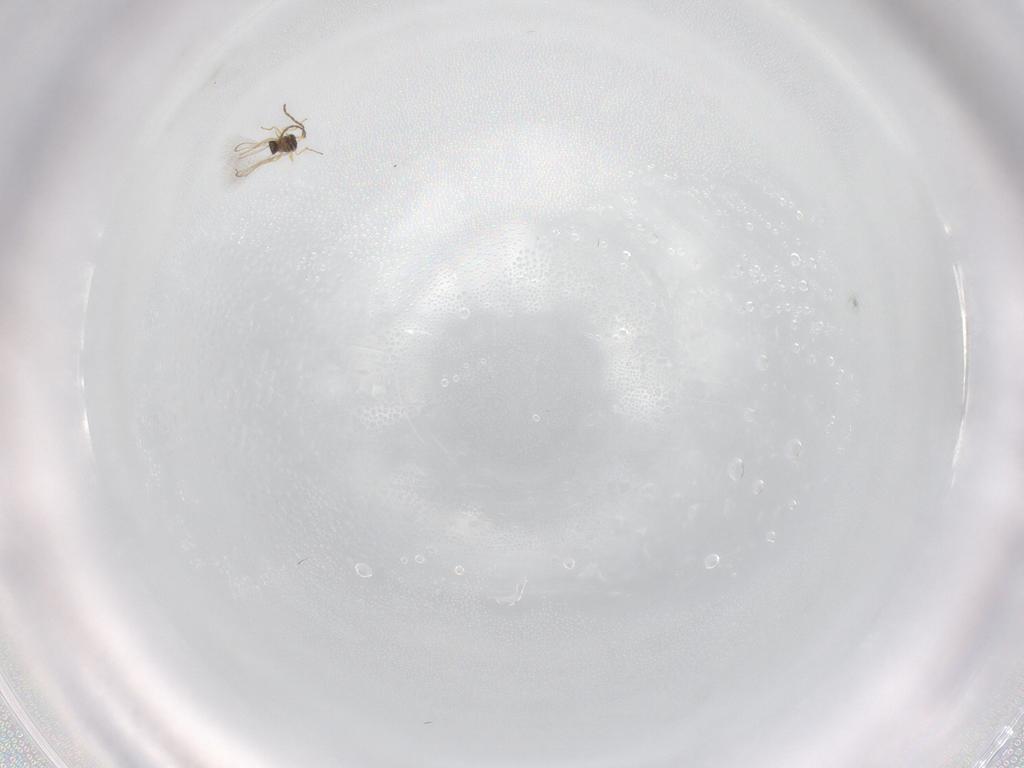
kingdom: Animalia
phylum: Arthropoda
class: Insecta
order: Hymenoptera
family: Mymaridae
